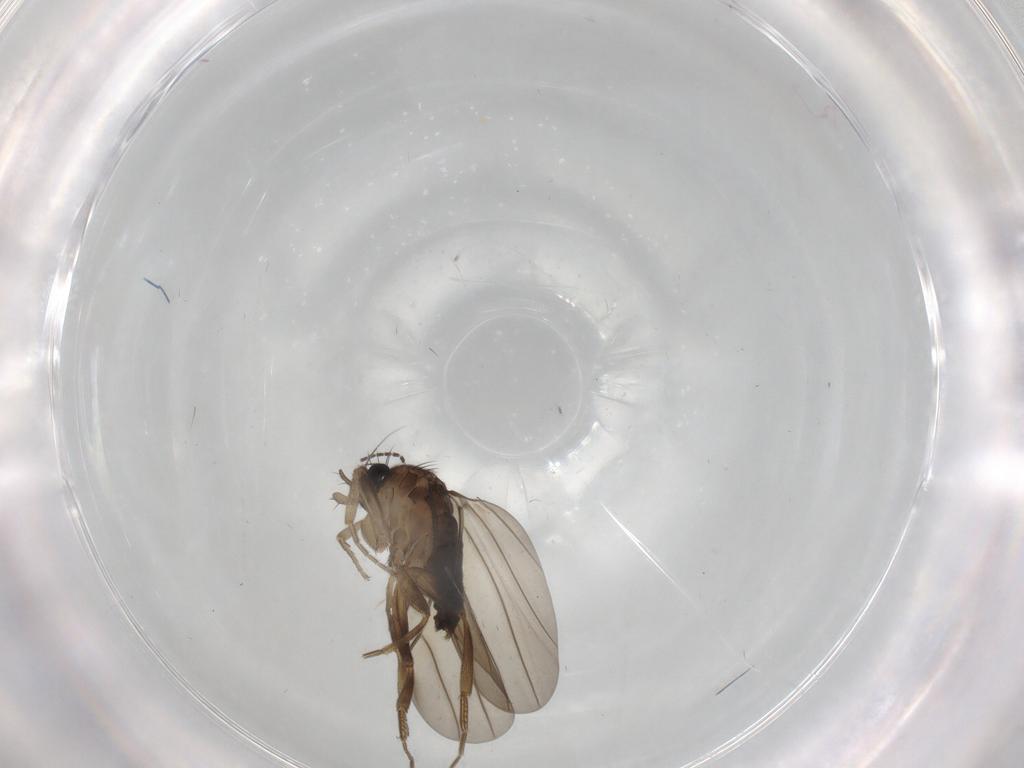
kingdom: Animalia
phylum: Arthropoda
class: Insecta
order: Diptera
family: Phoridae
